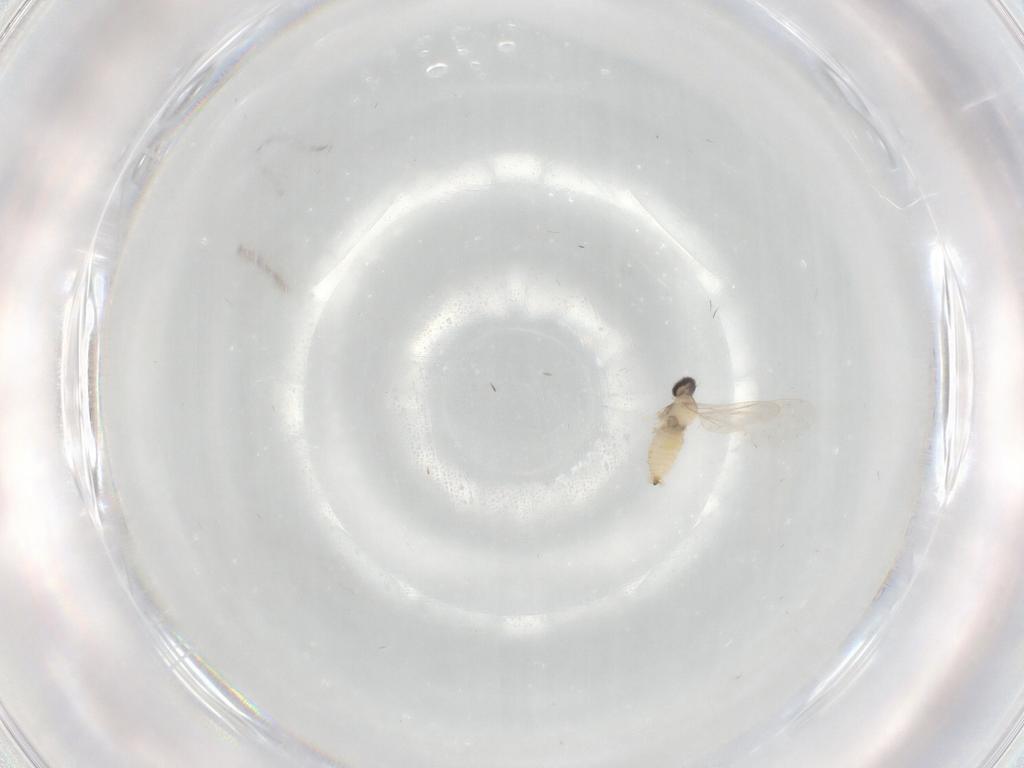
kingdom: Animalia
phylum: Arthropoda
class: Insecta
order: Diptera
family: Cecidomyiidae
